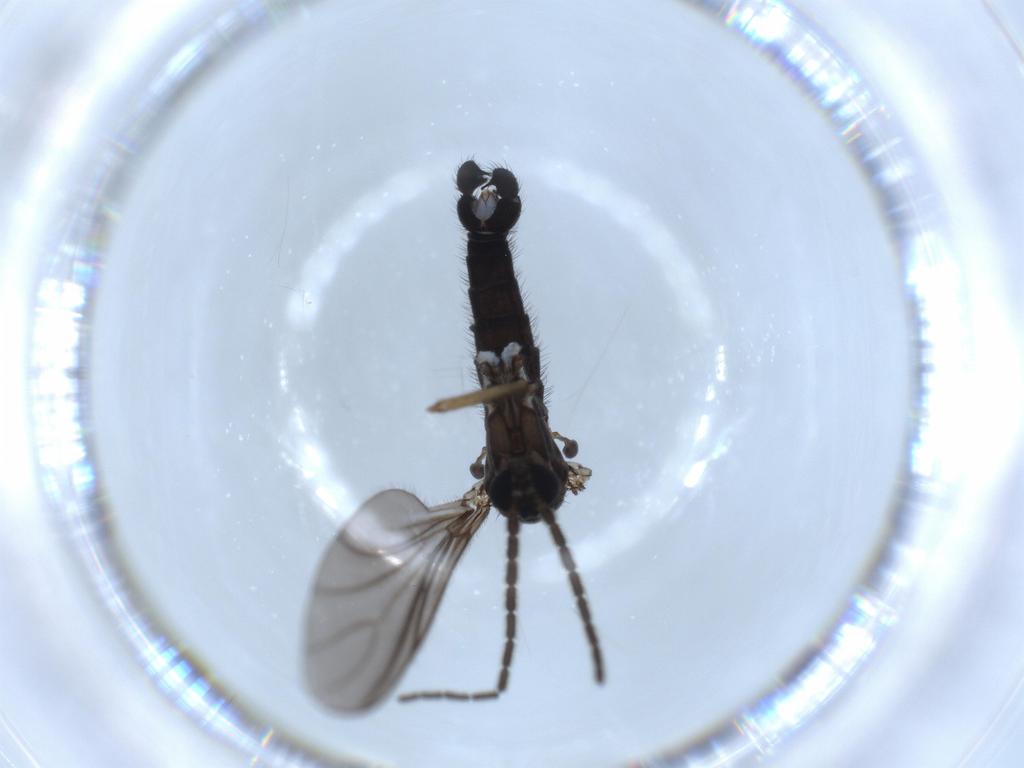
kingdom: Animalia
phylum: Arthropoda
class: Insecta
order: Diptera
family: Sciaridae
